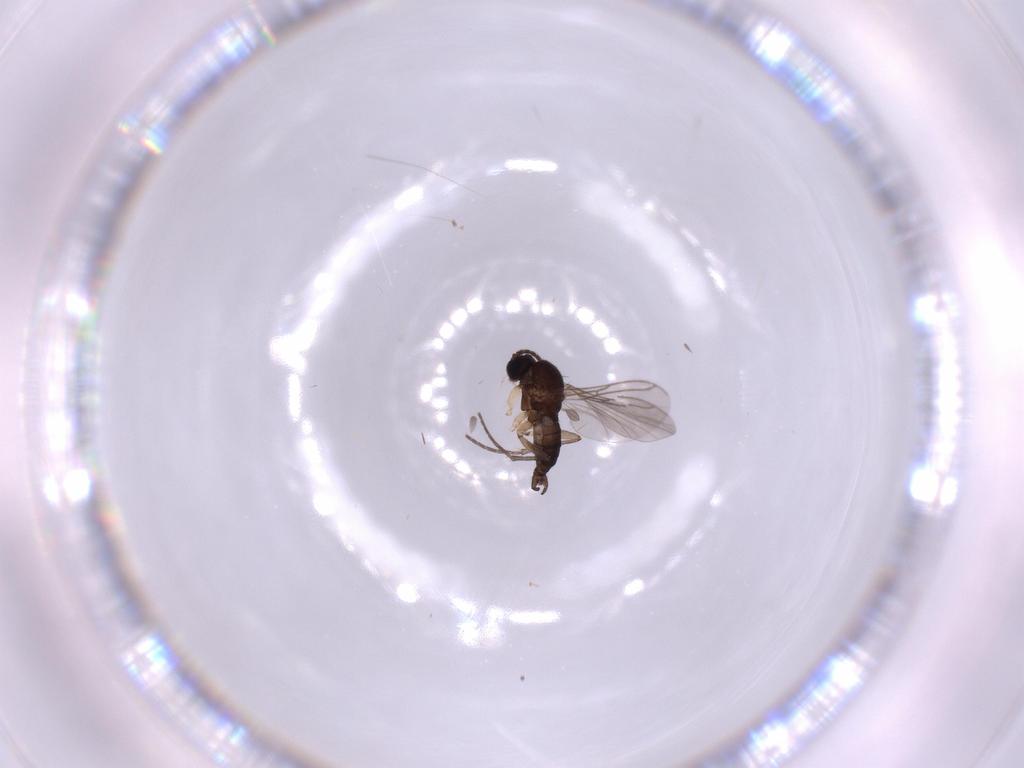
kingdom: Animalia
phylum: Arthropoda
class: Insecta
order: Diptera
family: Sciaridae
